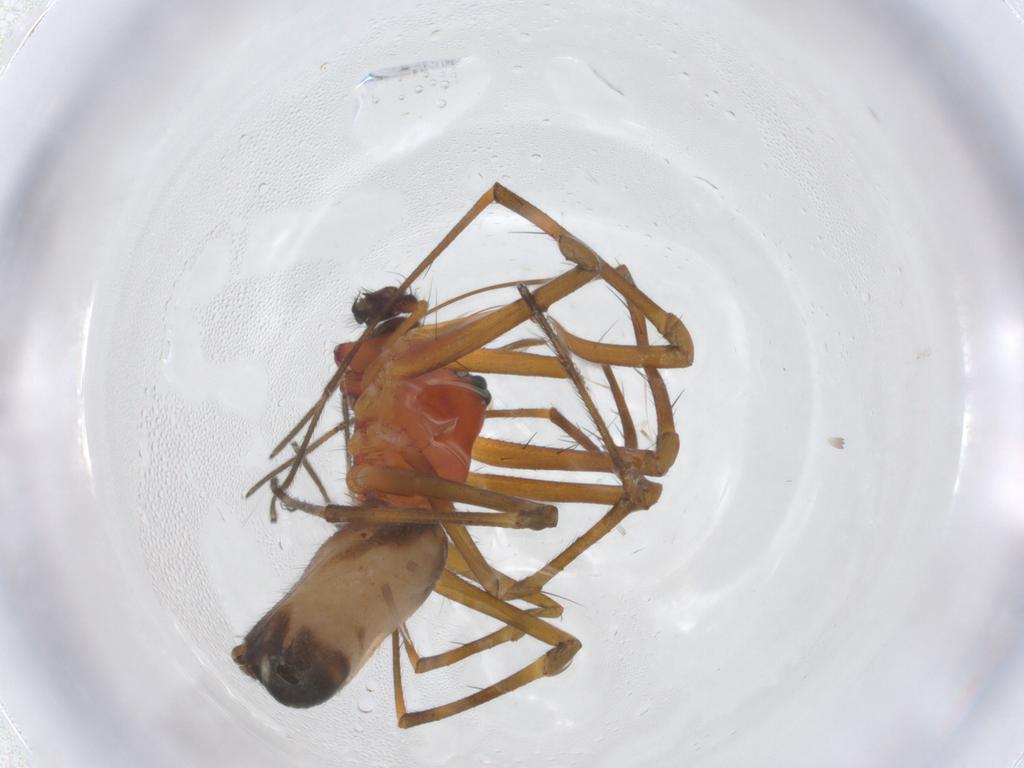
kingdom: Animalia
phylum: Arthropoda
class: Arachnida
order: Araneae
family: Linyphiidae
